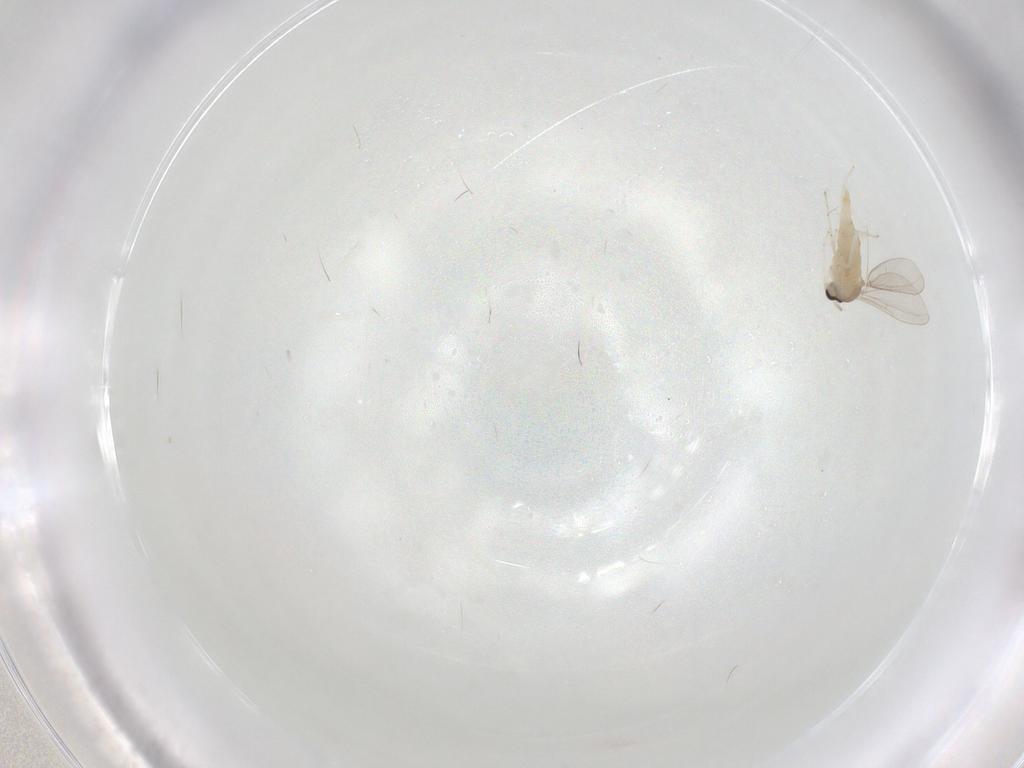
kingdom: Animalia
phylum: Arthropoda
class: Insecta
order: Diptera
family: Cecidomyiidae
